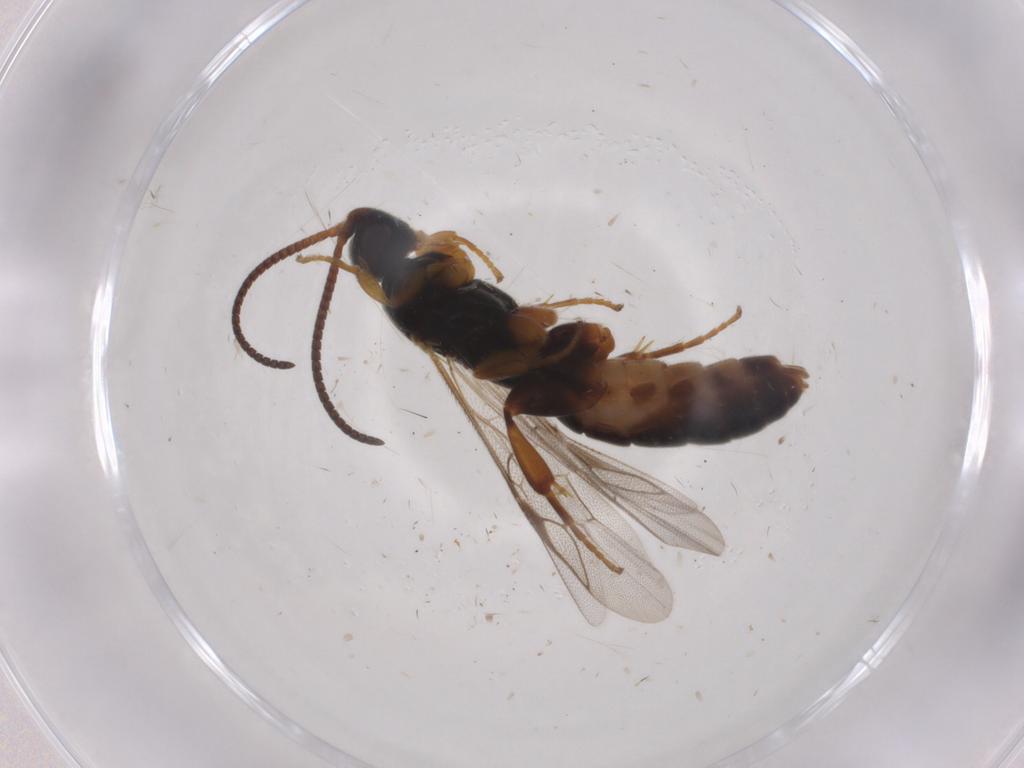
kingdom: Animalia
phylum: Arthropoda
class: Insecta
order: Hymenoptera
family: Ichneumonidae
